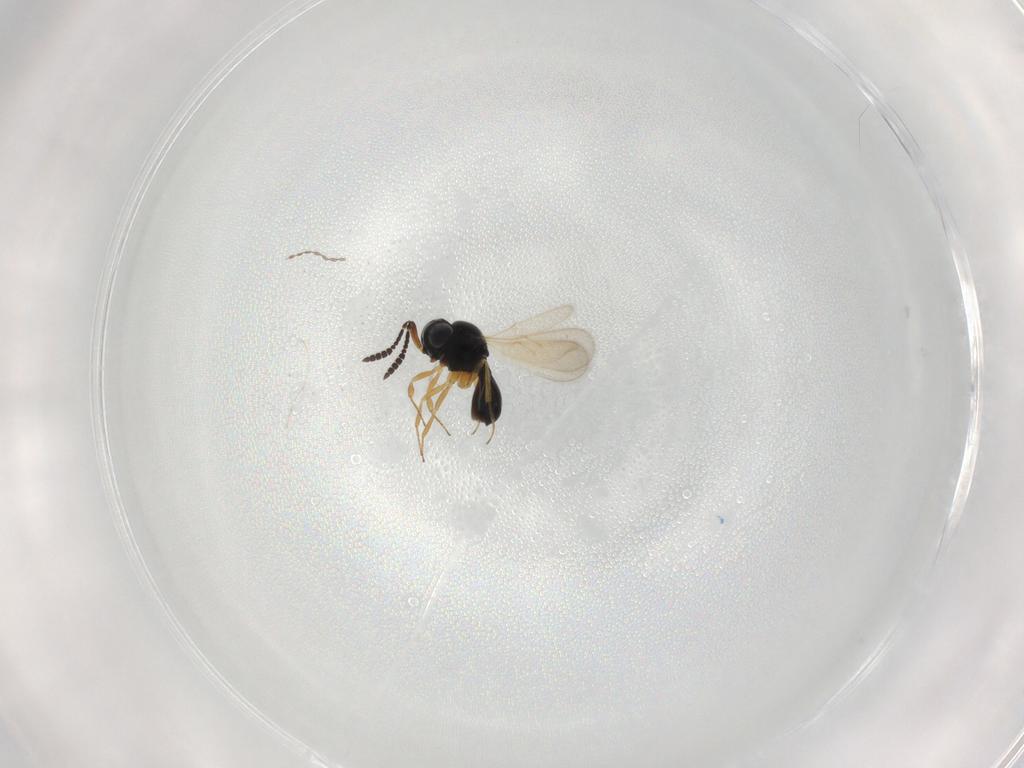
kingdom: Animalia
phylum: Arthropoda
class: Insecta
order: Hymenoptera
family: Scelionidae
